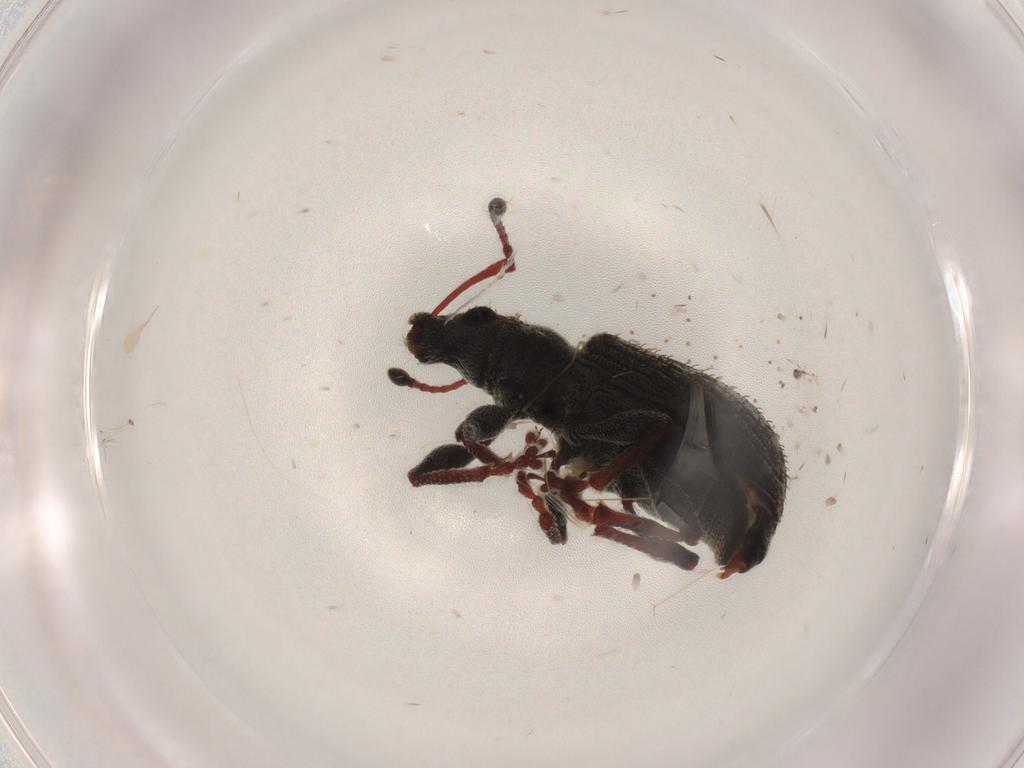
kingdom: Animalia
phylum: Arthropoda
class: Insecta
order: Coleoptera
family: Curculionidae
